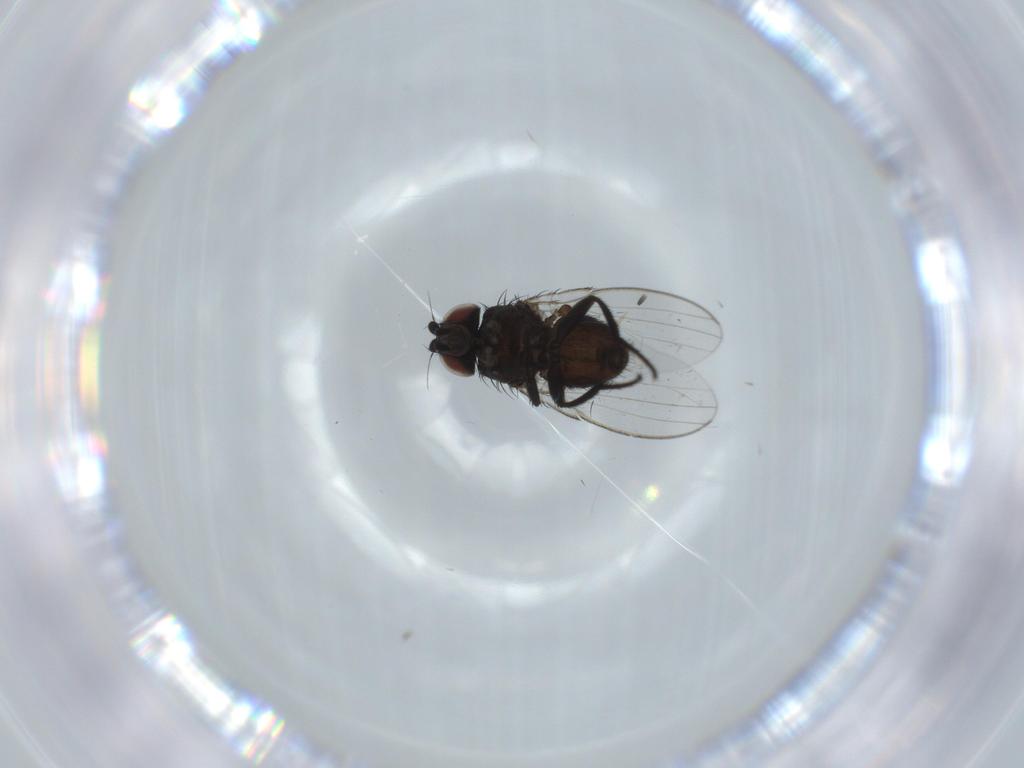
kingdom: Animalia
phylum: Arthropoda
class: Insecta
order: Diptera
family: Milichiidae
